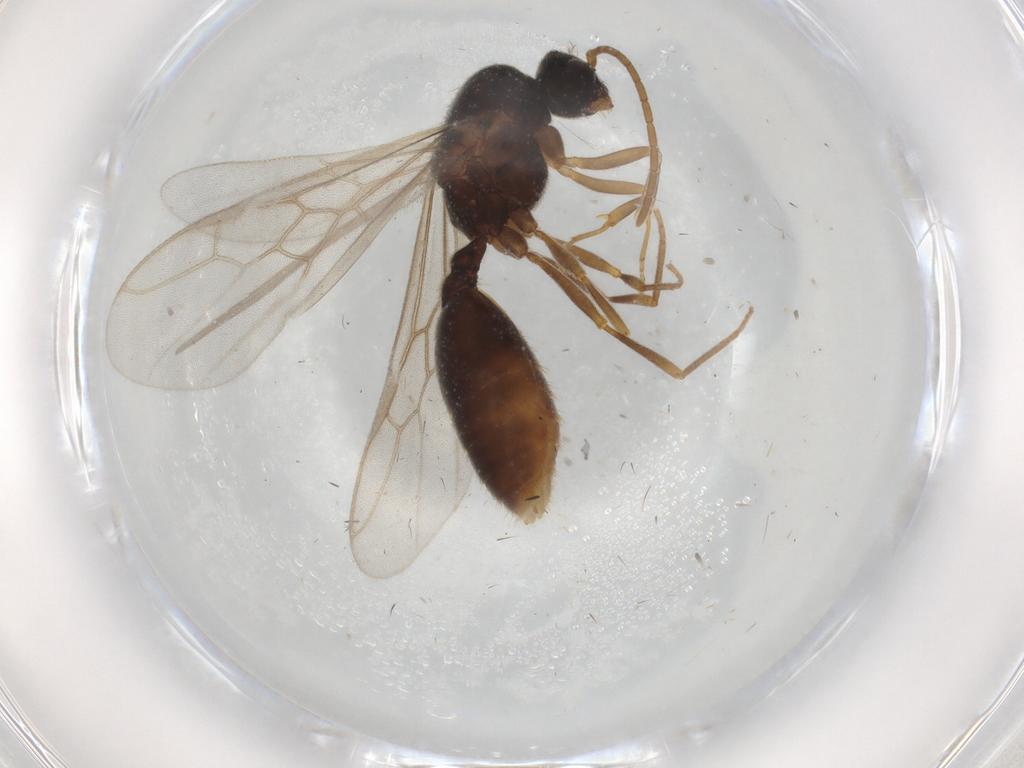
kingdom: Animalia
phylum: Arthropoda
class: Insecta
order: Hymenoptera
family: Formicidae
